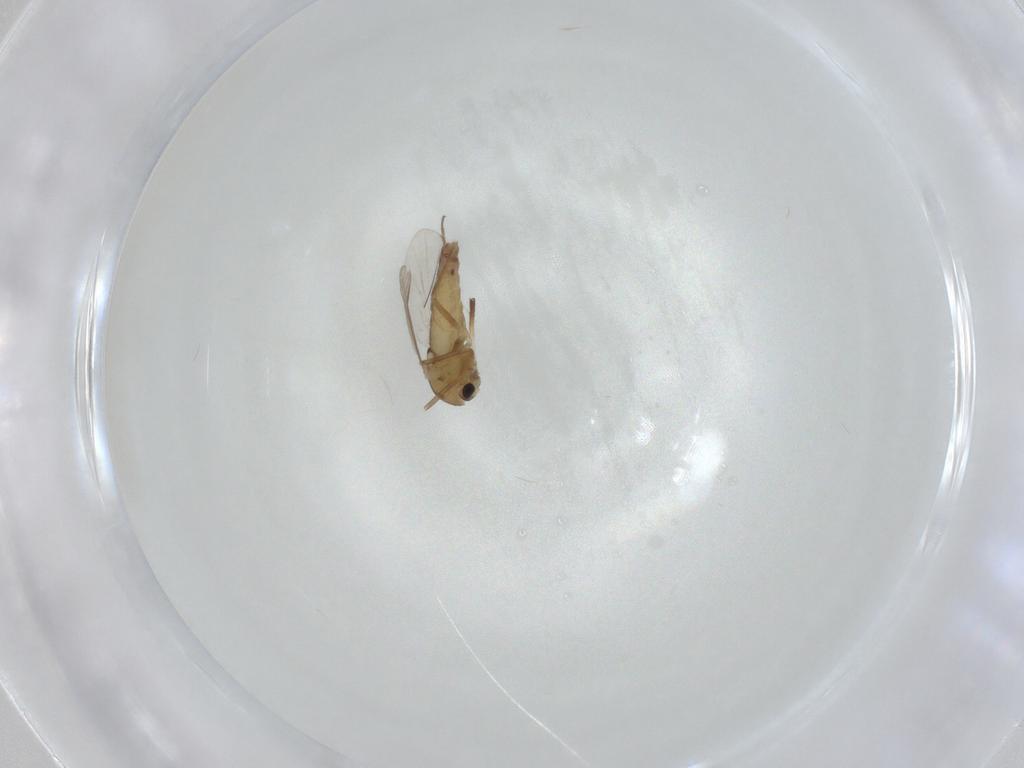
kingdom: Animalia
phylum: Arthropoda
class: Insecta
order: Diptera
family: Chironomidae
